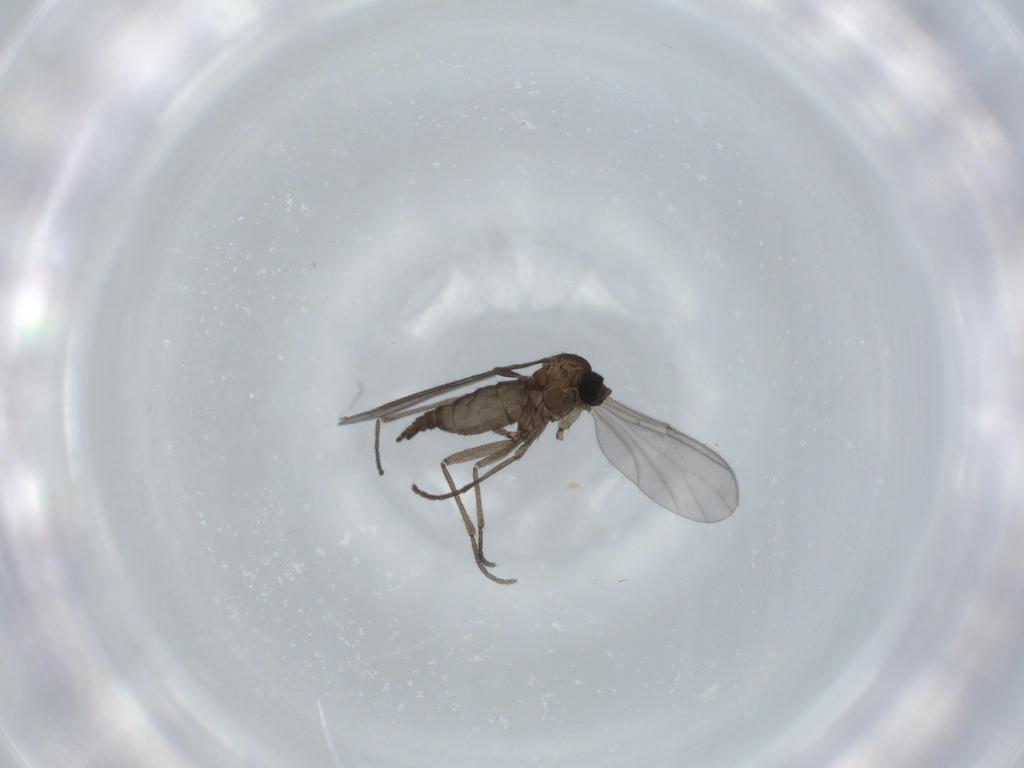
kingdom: Animalia
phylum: Arthropoda
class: Insecta
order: Diptera
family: Sciaridae
